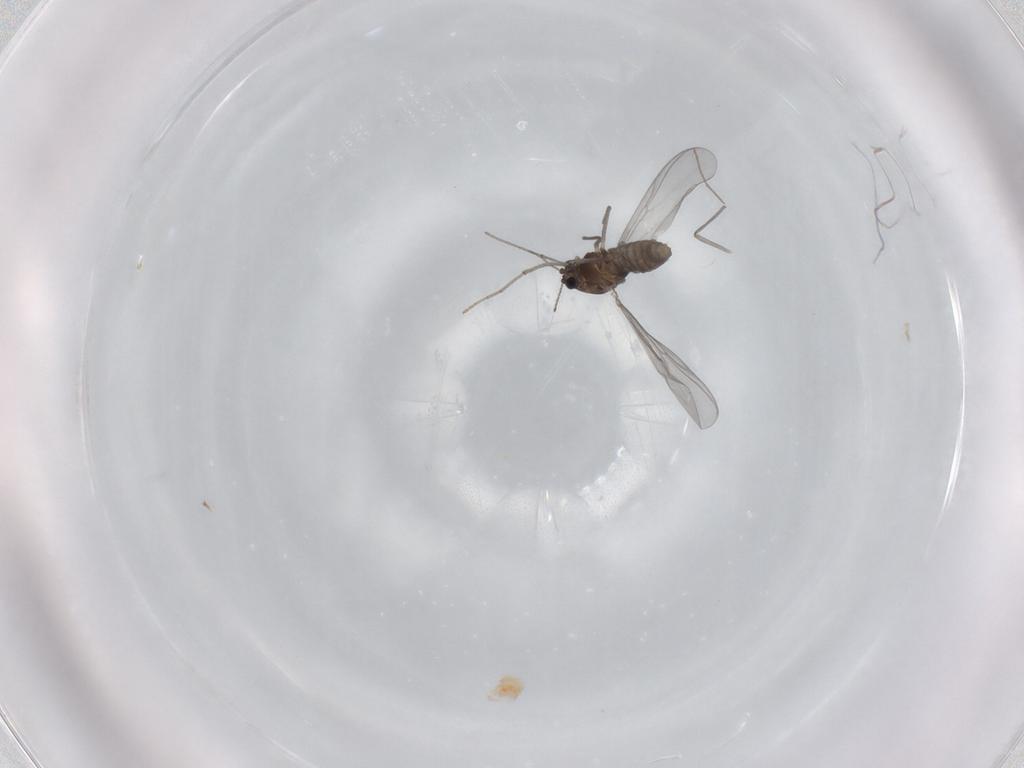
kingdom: Animalia
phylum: Arthropoda
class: Insecta
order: Diptera
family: Chironomidae
